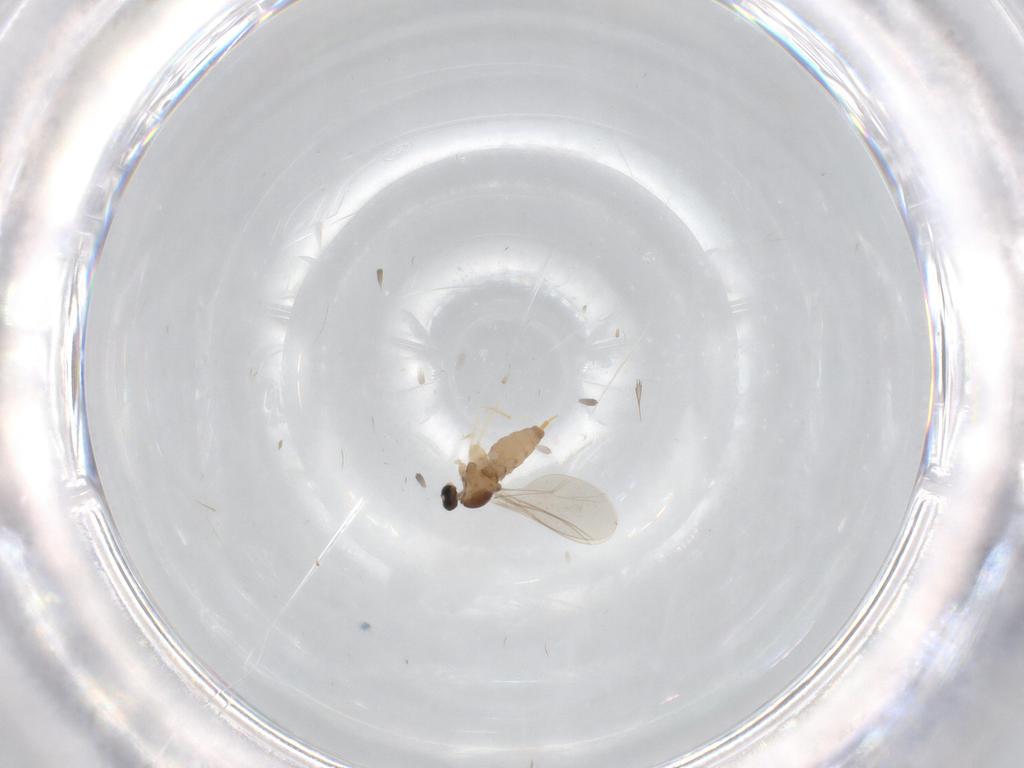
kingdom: Animalia
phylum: Arthropoda
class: Insecta
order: Diptera
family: Cecidomyiidae
